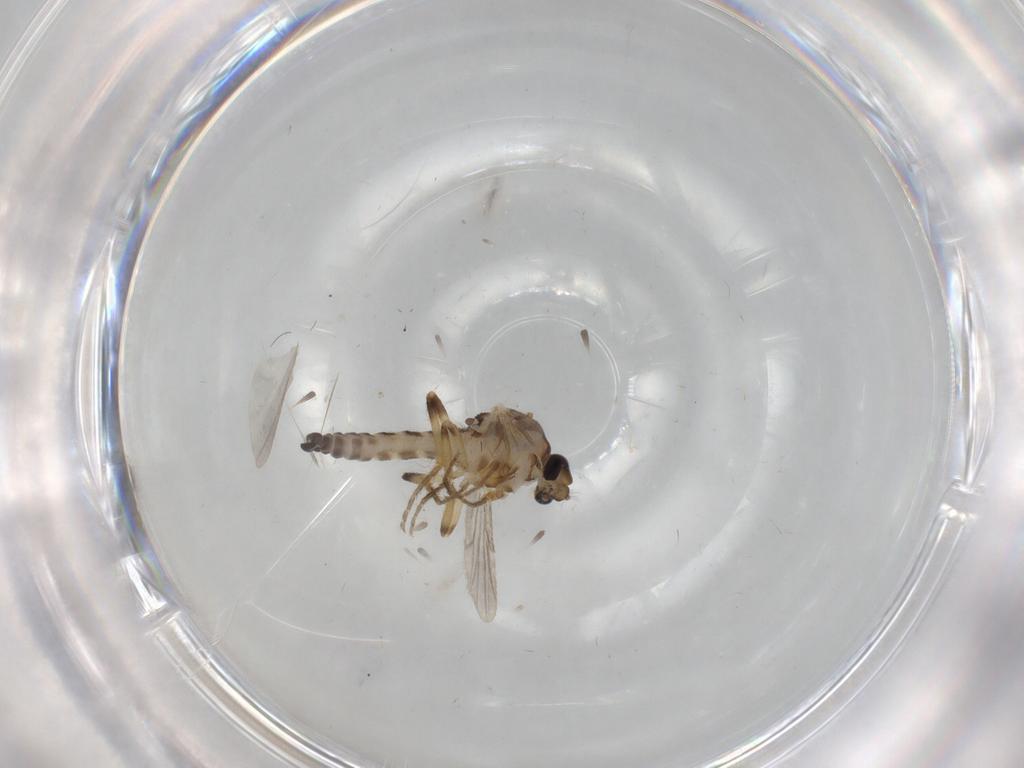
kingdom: Animalia
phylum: Arthropoda
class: Insecta
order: Diptera
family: Ceratopogonidae
